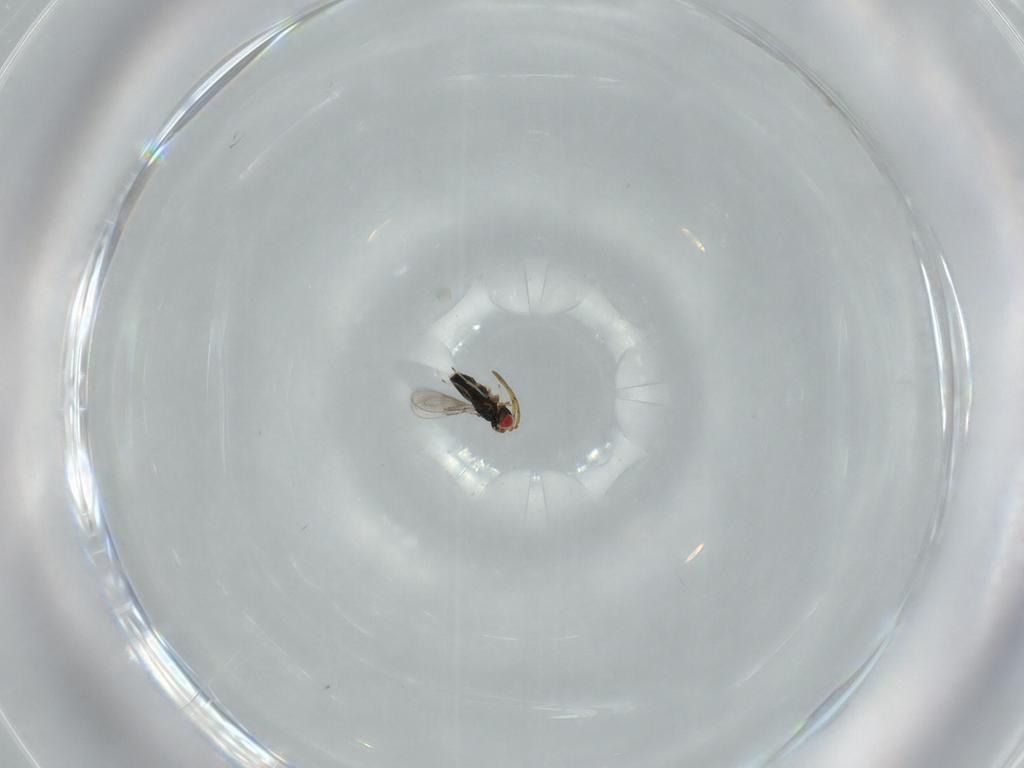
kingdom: Animalia
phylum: Arthropoda
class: Insecta
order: Hymenoptera
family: Azotidae
